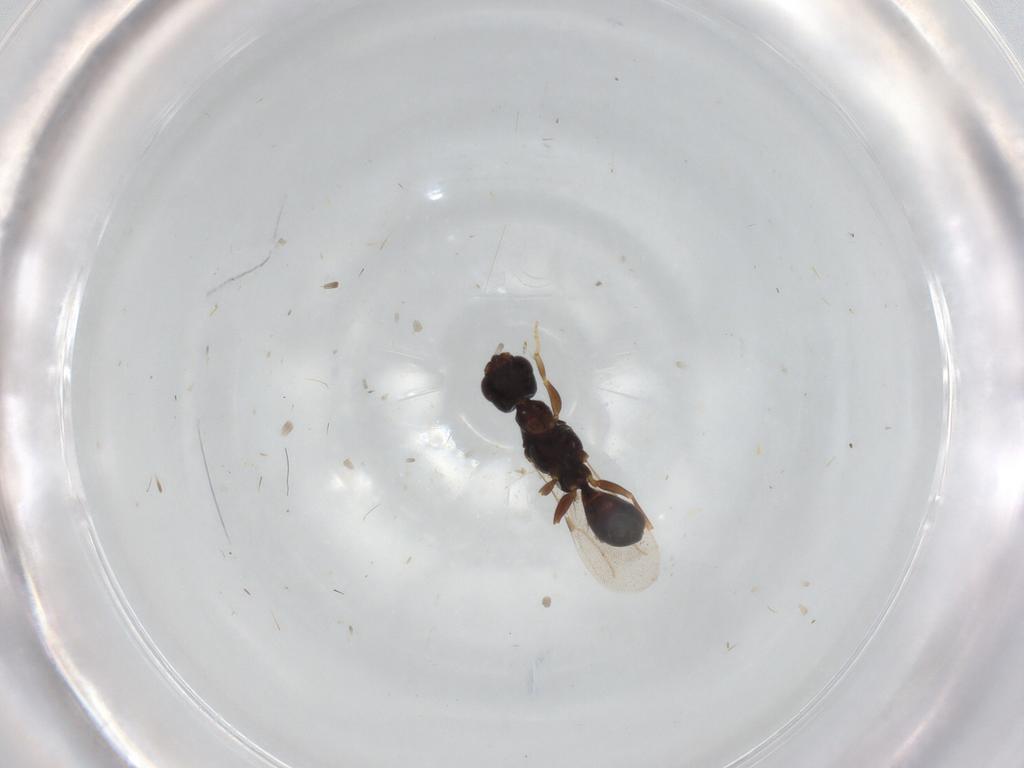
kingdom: Animalia
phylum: Arthropoda
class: Insecta
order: Hymenoptera
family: Bethylidae
